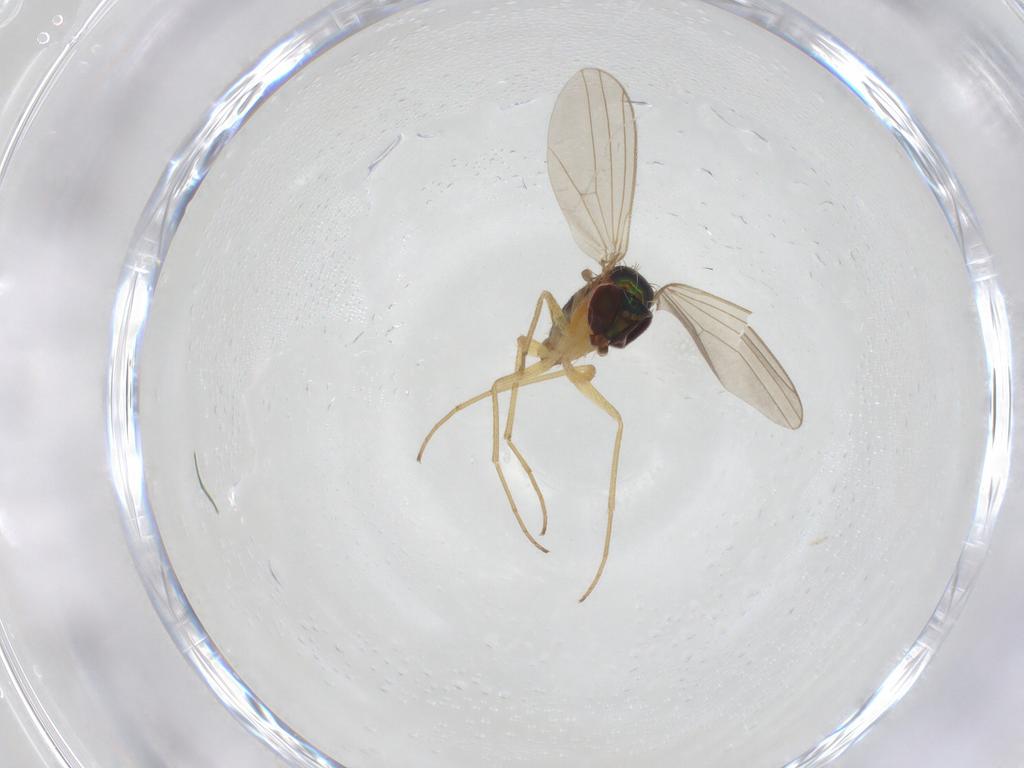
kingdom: Animalia
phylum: Arthropoda
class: Insecta
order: Diptera
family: Dolichopodidae
